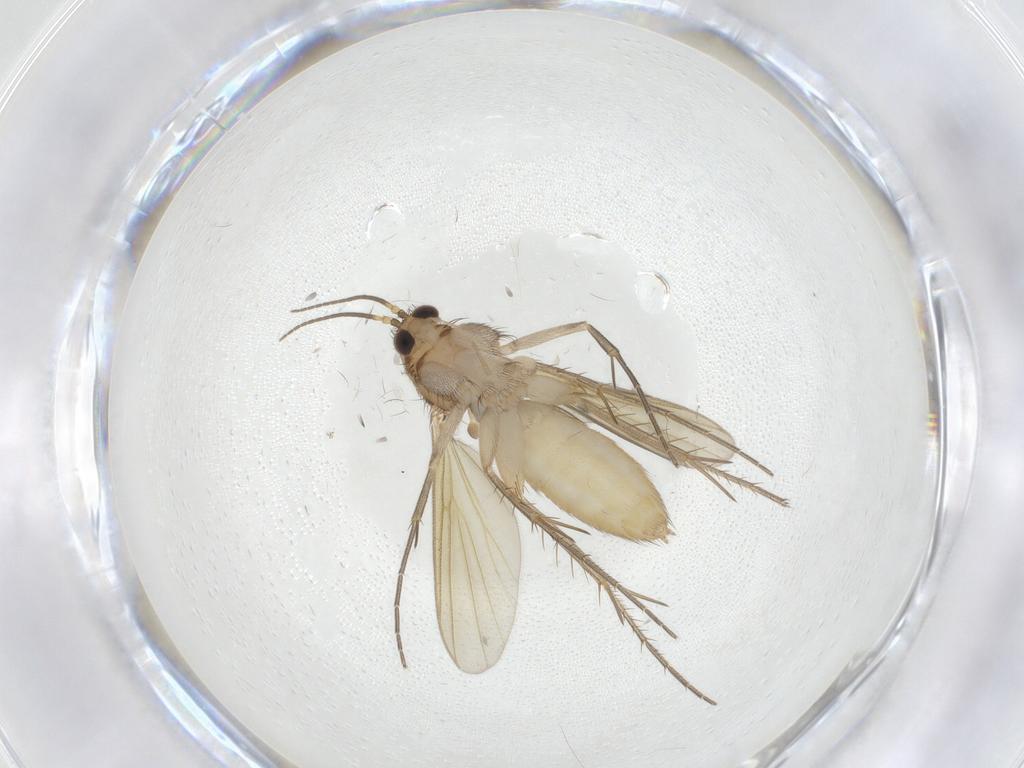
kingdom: Animalia
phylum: Arthropoda
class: Insecta
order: Diptera
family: Mycetophilidae
